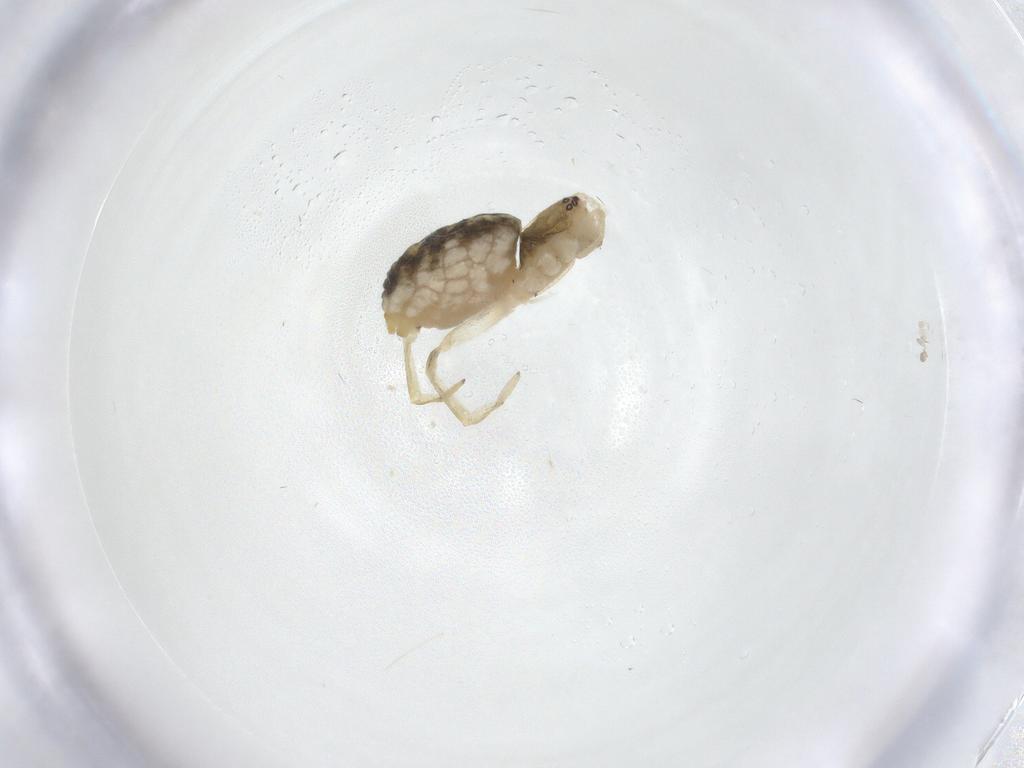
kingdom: Animalia
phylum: Arthropoda
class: Arachnida
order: Araneae
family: Dictynidae
